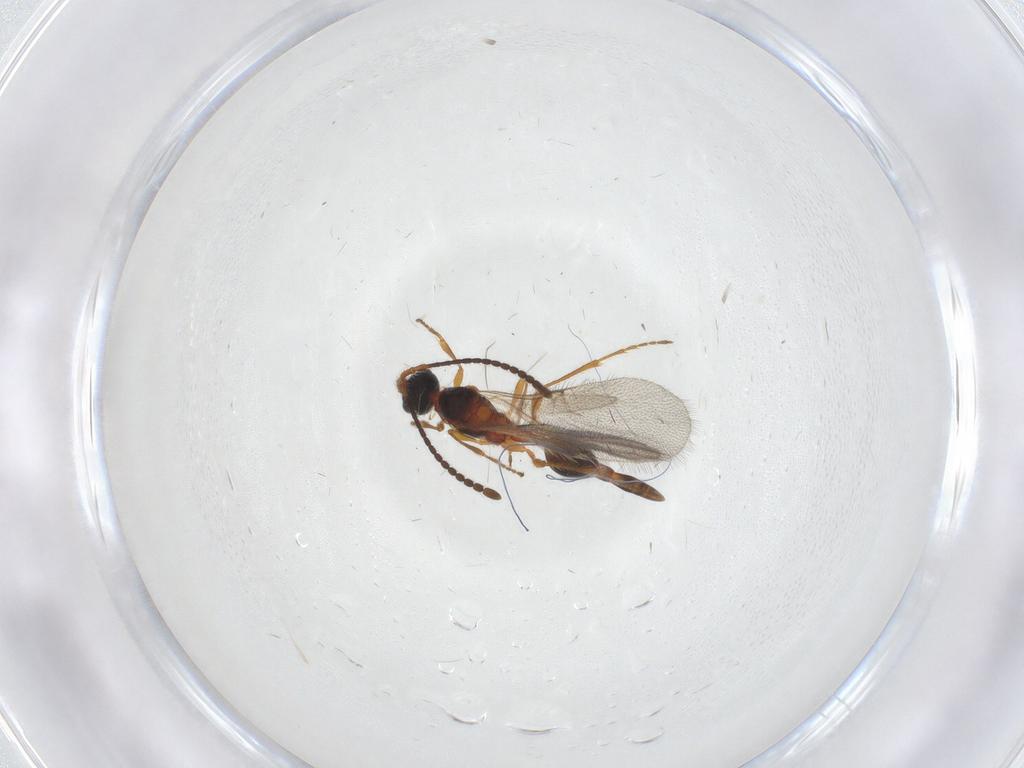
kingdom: Animalia
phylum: Arthropoda
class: Insecta
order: Hymenoptera
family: Diapriidae
